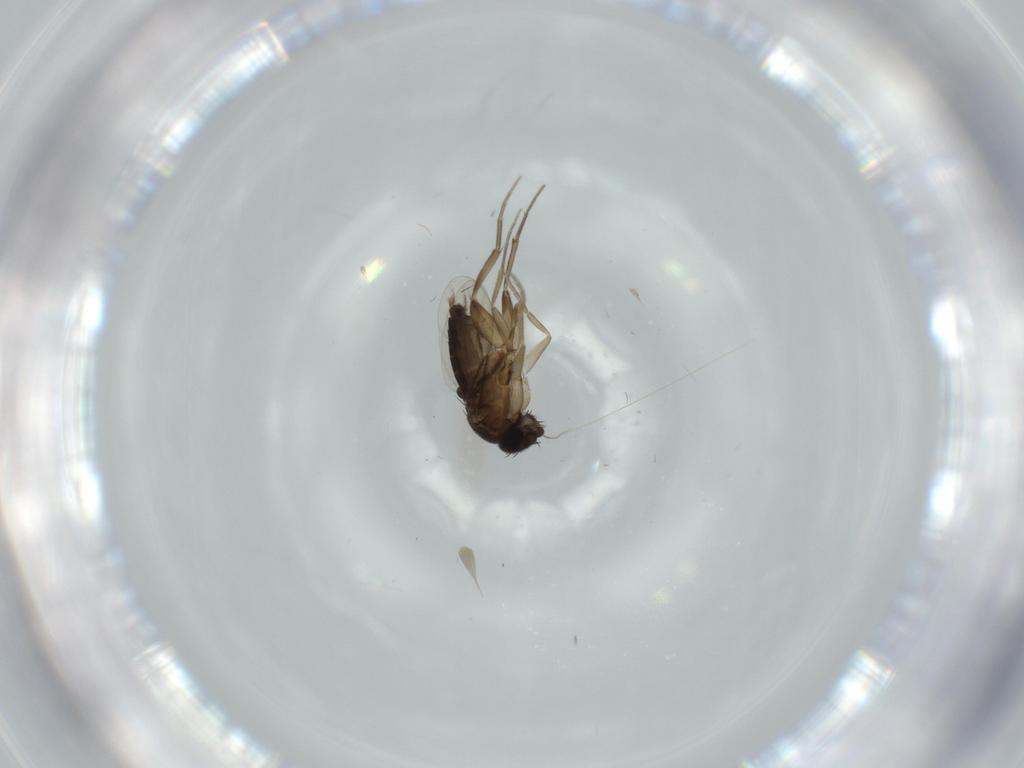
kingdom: Animalia
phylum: Arthropoda
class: Insecta
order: Diptera
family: Sciaridae
